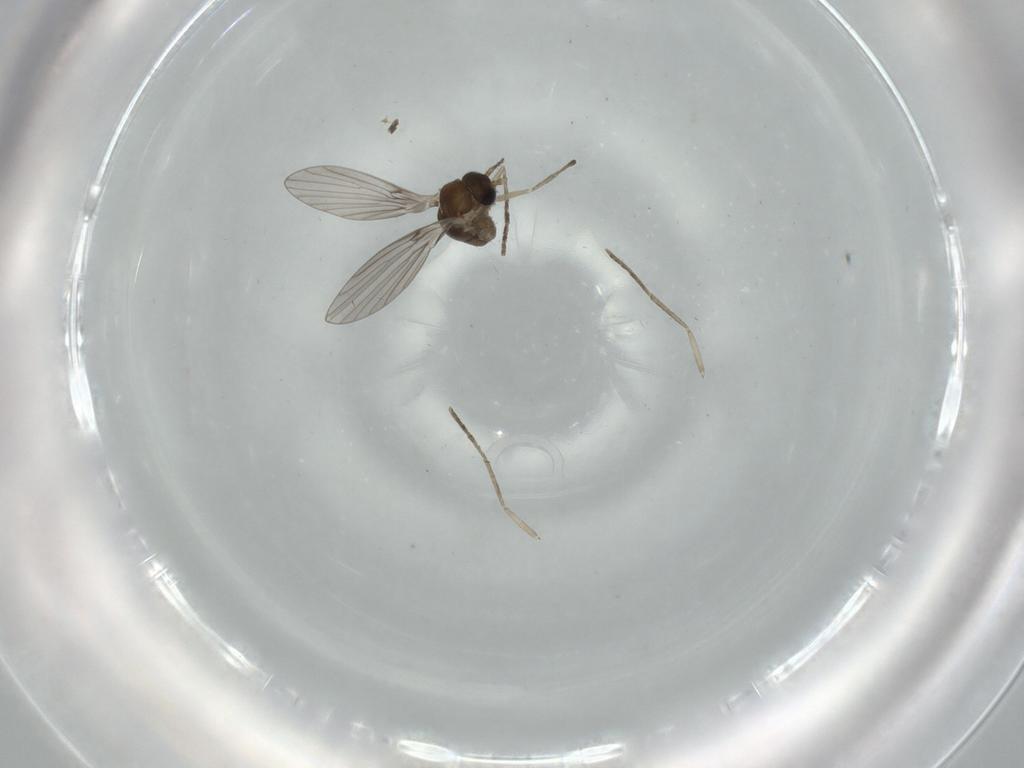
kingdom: Animalia
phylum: Arthropoda
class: Insecta
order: Diptera
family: Psychodidae
